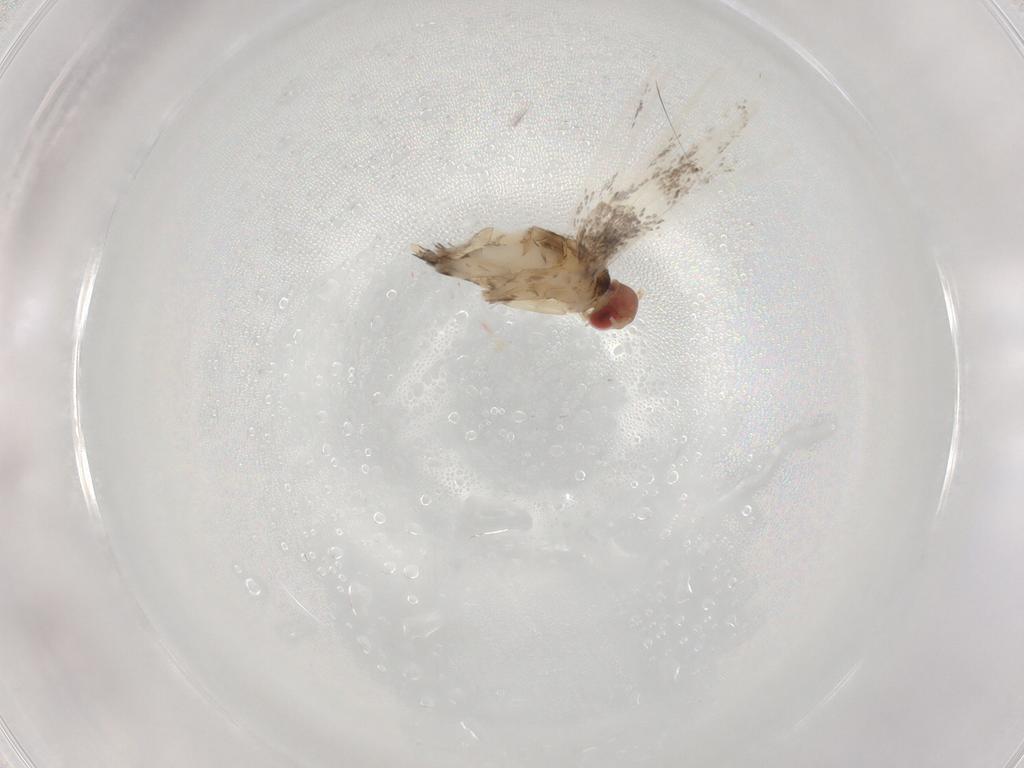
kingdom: Animalia
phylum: Arthropoda
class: Insecta
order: Lepidoptera
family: Gracillariidae
